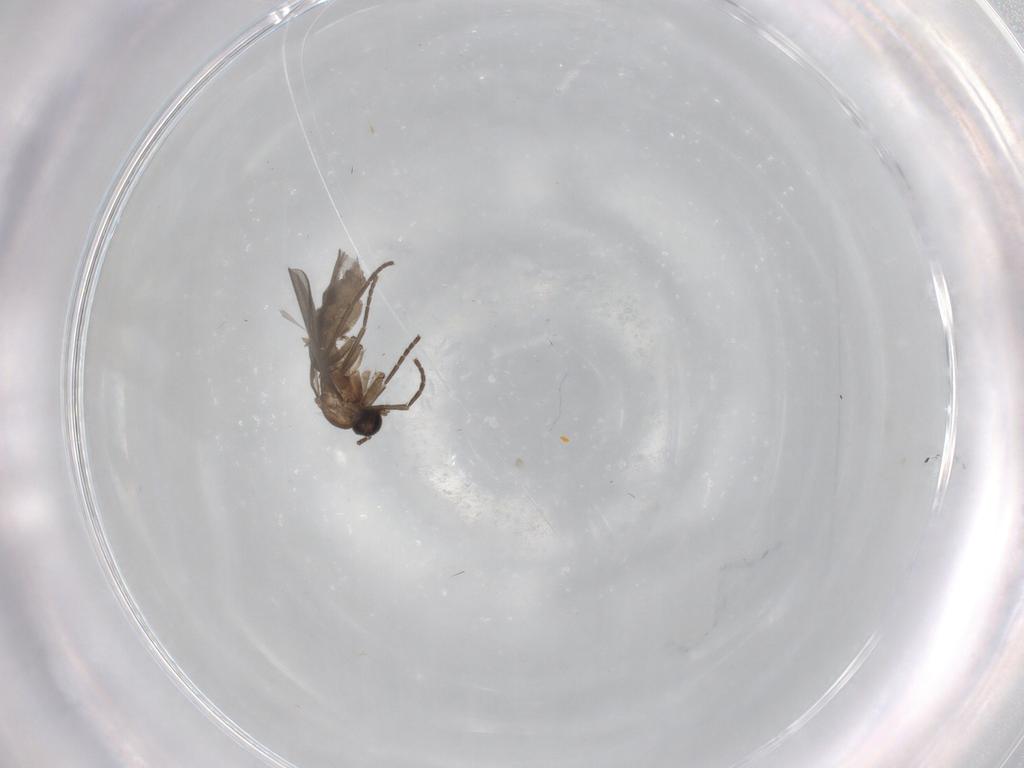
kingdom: Animalia
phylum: Arthropoda
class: Insecta
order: Diptera
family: Sciaridae
